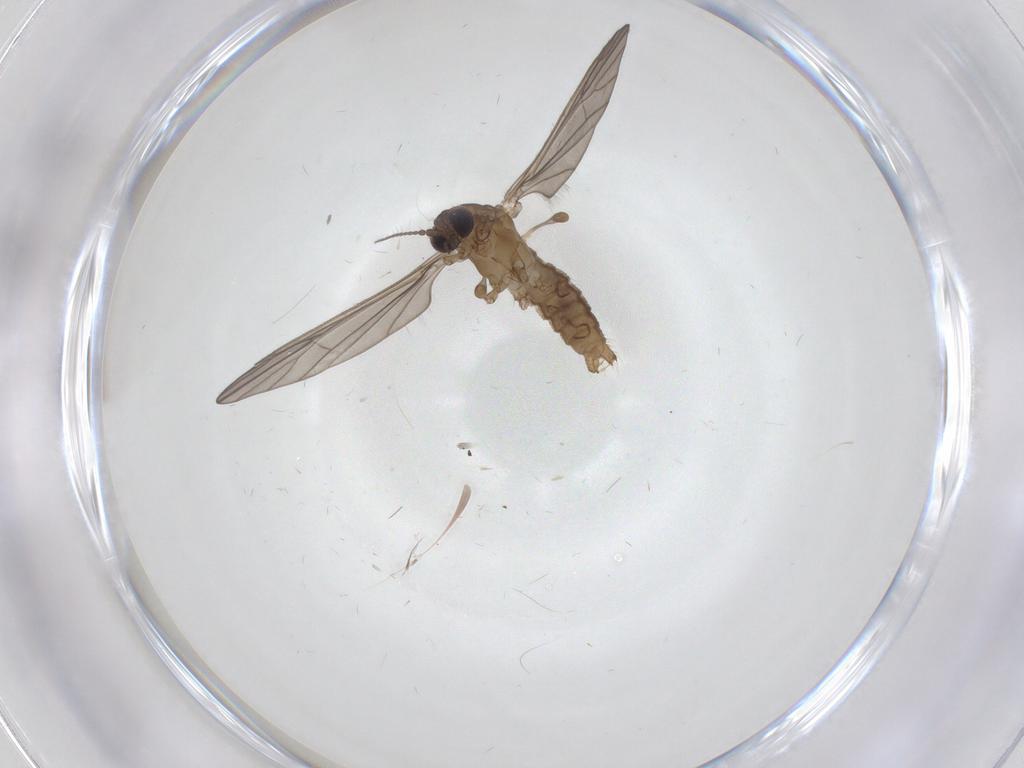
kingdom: Animalia
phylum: Arthropoda
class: Insecta
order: Diptera
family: Limoniidae
